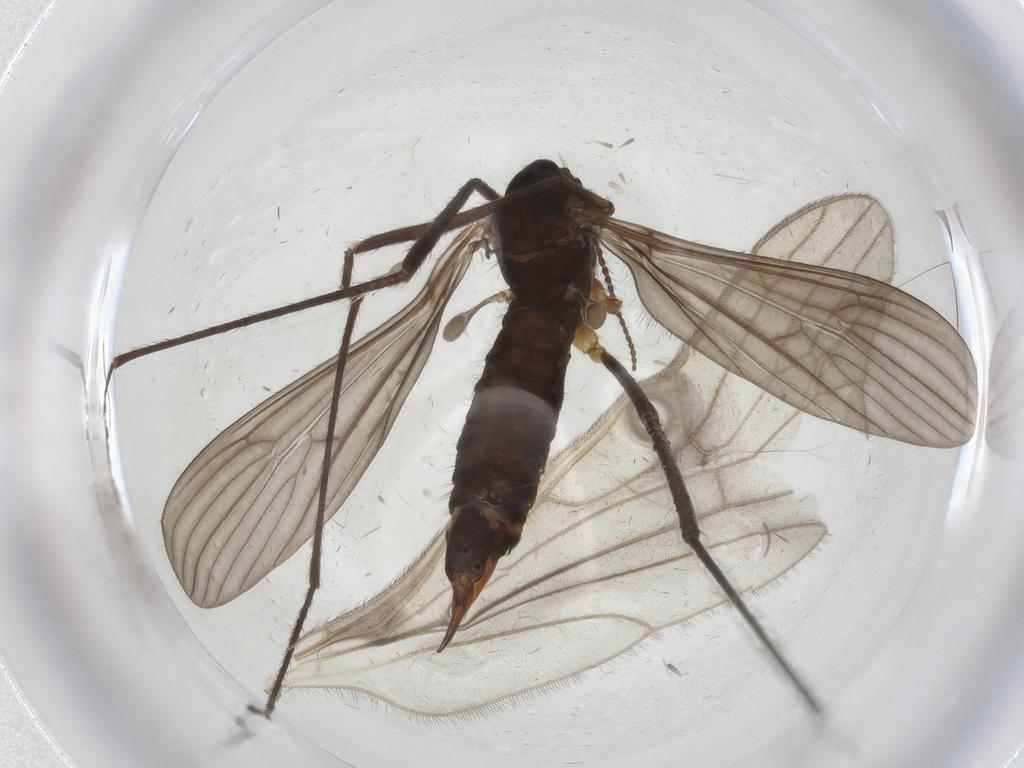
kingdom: Animalia
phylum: Arthropoda
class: Insecta
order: Diptera
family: Limoniidae
